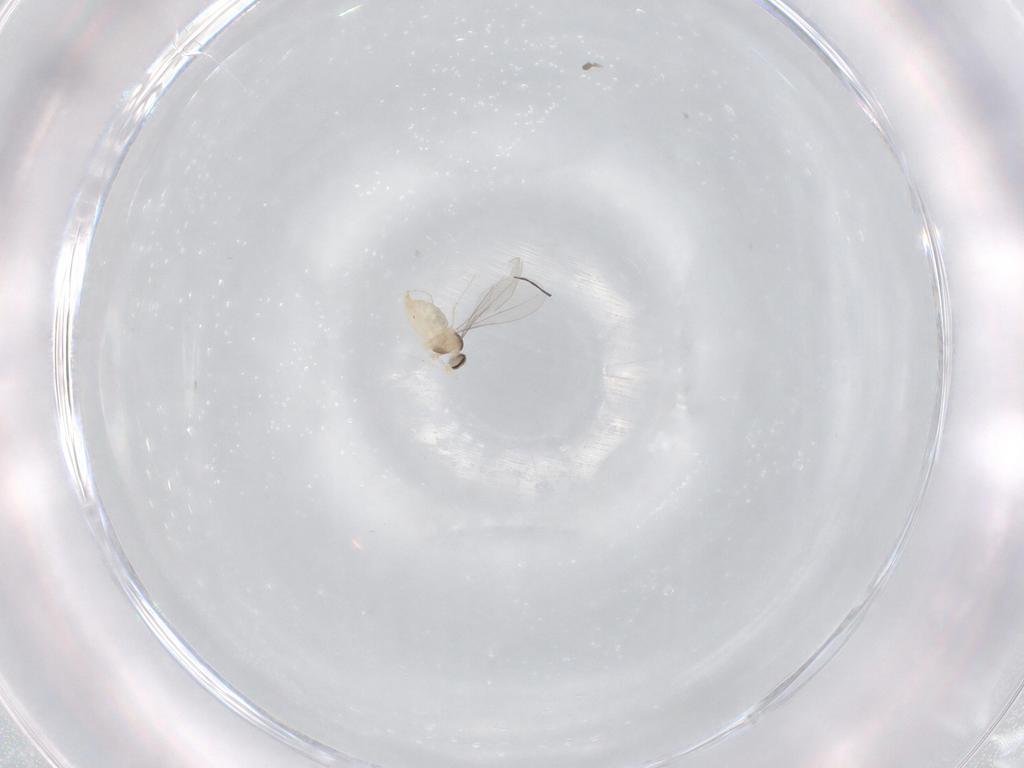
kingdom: Animalia
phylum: Arthropoda
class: Insecta
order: Diptera
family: Cecidomyiidae
